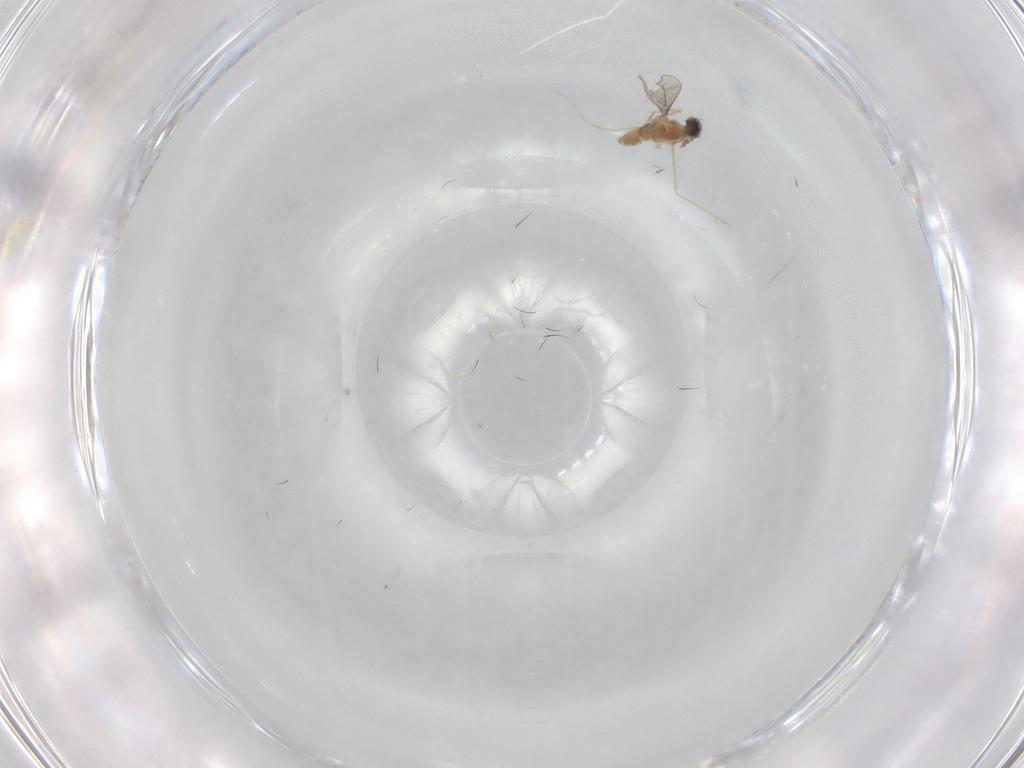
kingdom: Animalia
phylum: Arthropoda
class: Insecta
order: Diptera
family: Cecidomyiidae
